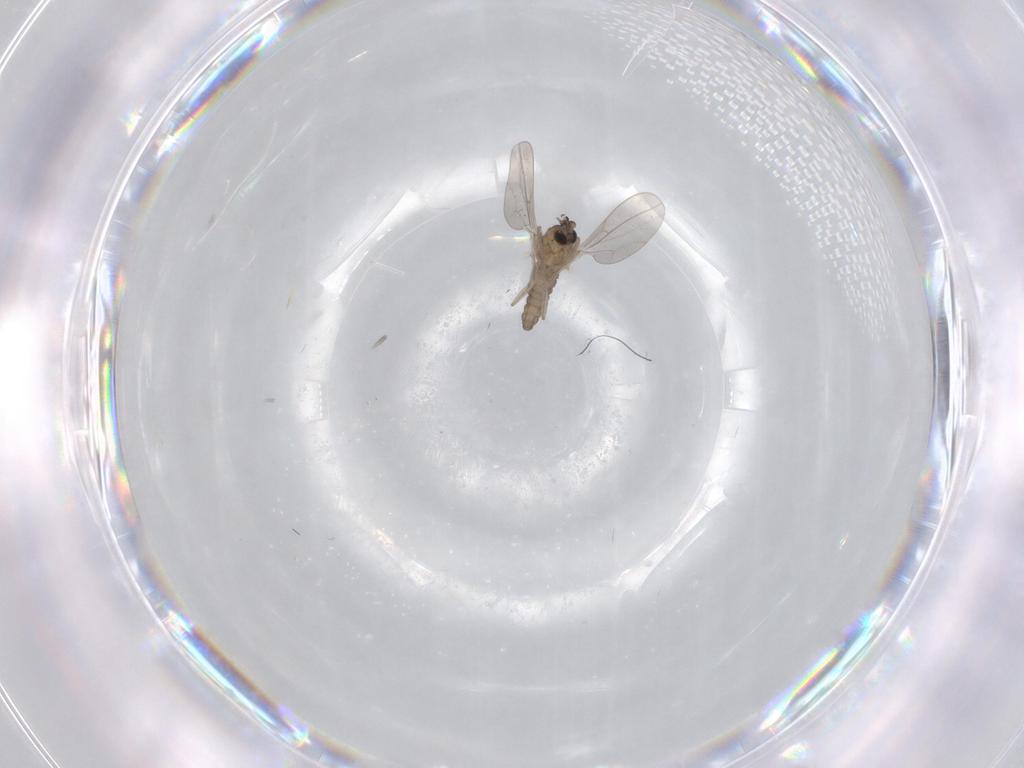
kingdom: Animalia
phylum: Arthropoda
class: Insecta
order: Diptera
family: Cecidomyiidae
